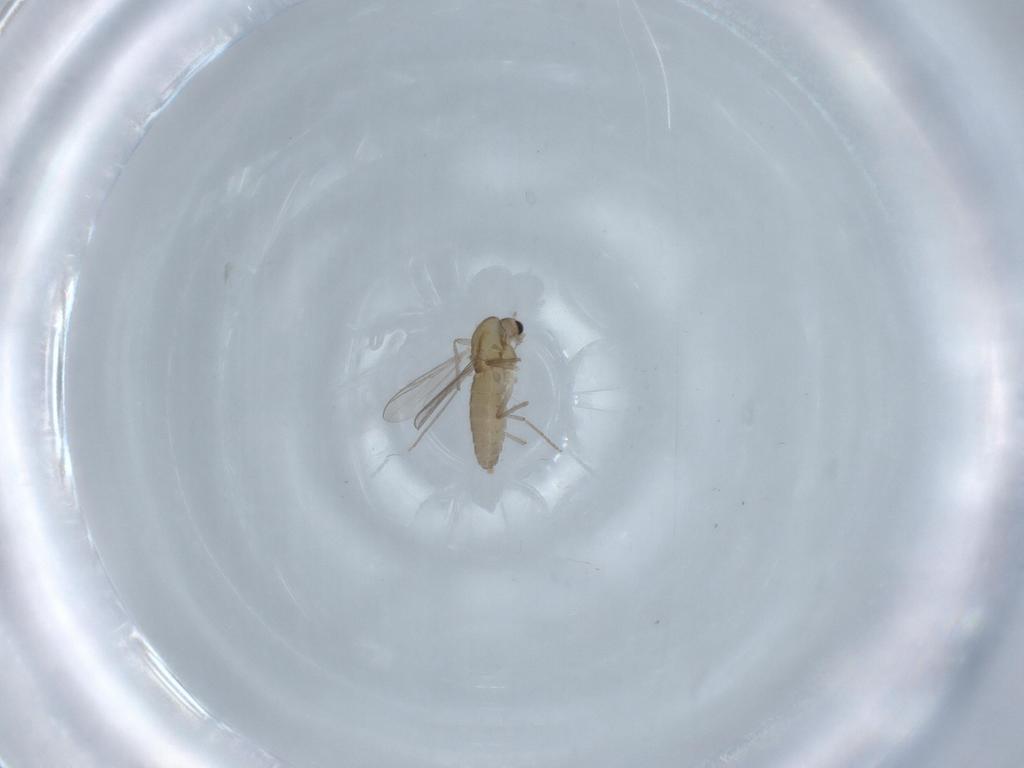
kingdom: Animalia
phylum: Arthropoda
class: Insecta
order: Diptera
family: Chironomidae
